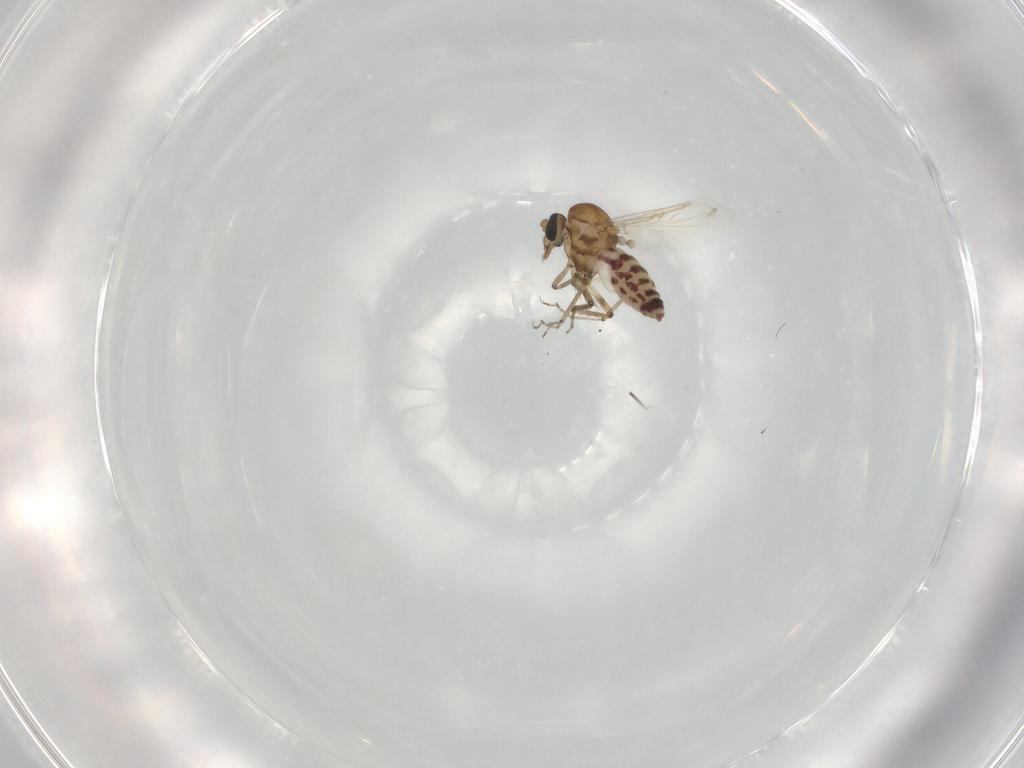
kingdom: Animalia
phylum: Arthropoda
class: Insecta
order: Diptera
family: Ceratopogonidae
